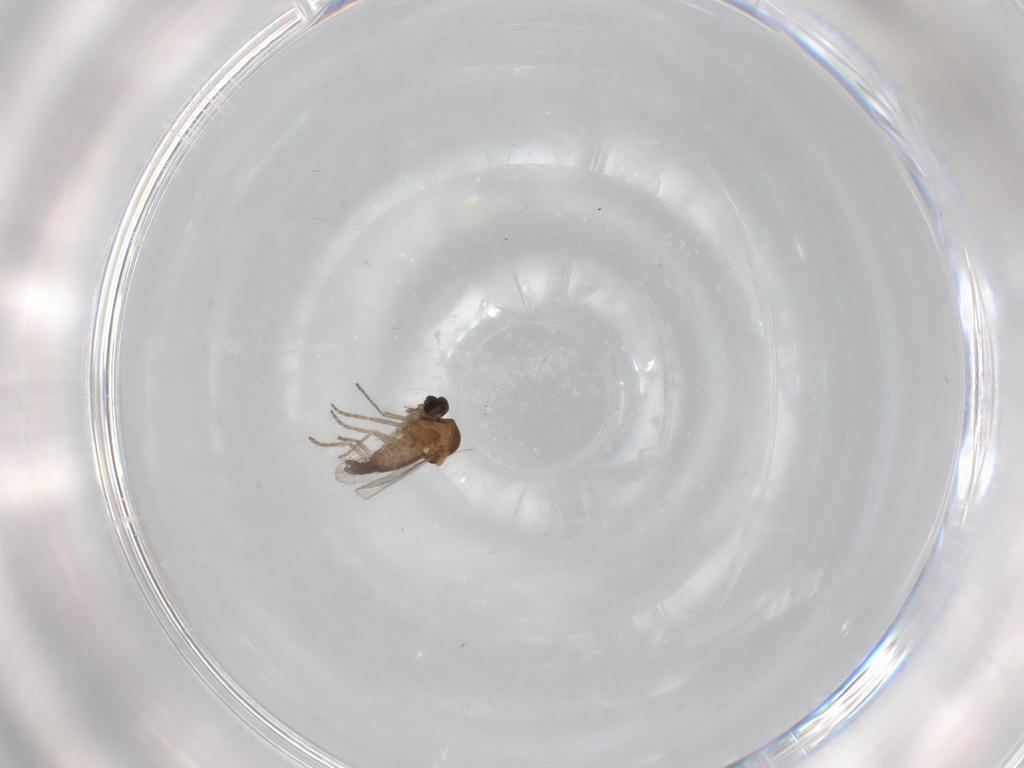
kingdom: Animalia
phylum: Arthropoda
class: Insecta
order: Diptera
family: Ceratopogonidae
